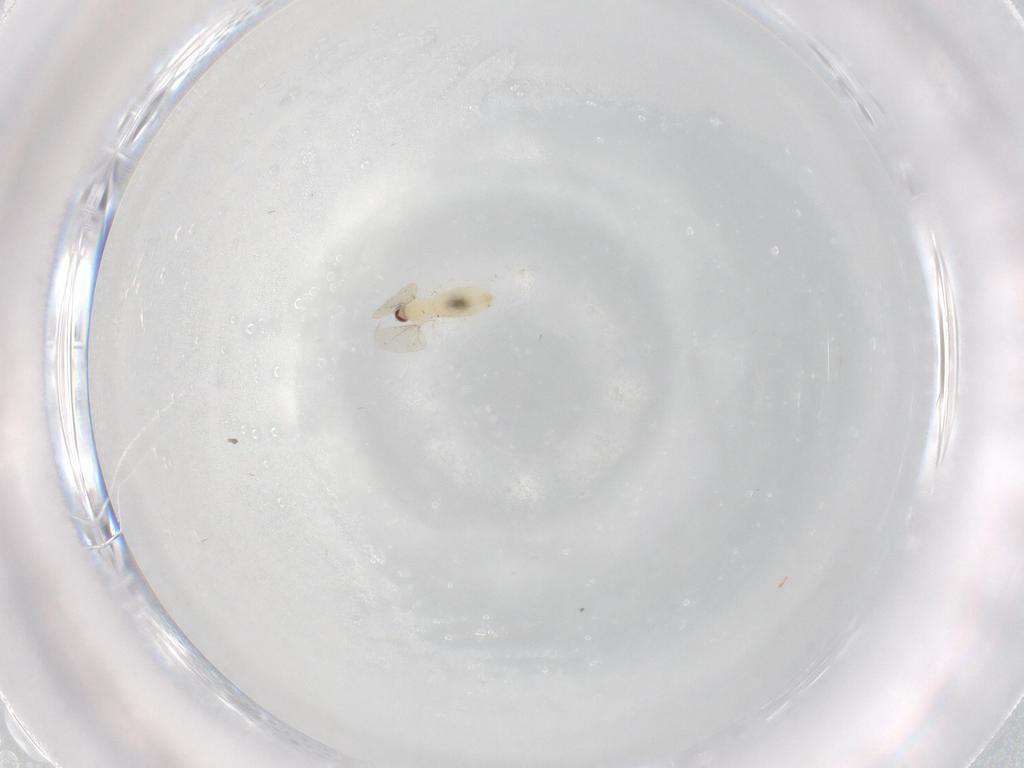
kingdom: Animalia
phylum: Arthropoda
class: Insecta
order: Diptera
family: Cecidomyiidae
